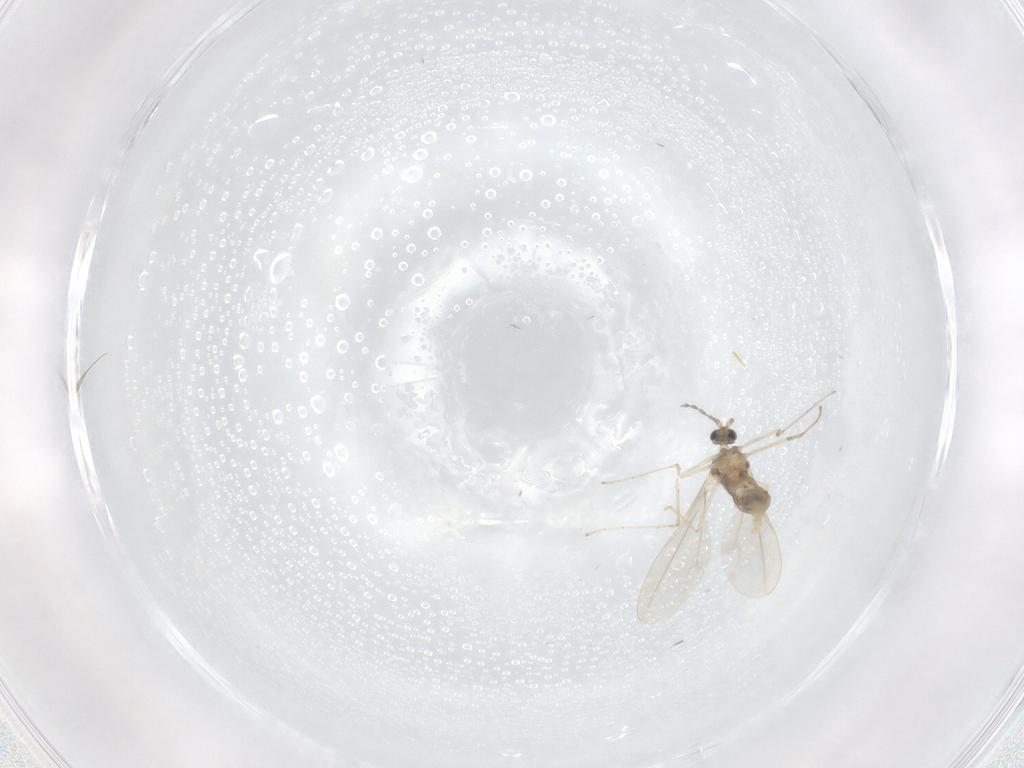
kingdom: Animalia
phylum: Arthropoda
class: Insecta
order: Diptera
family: Cecidomyiidae
